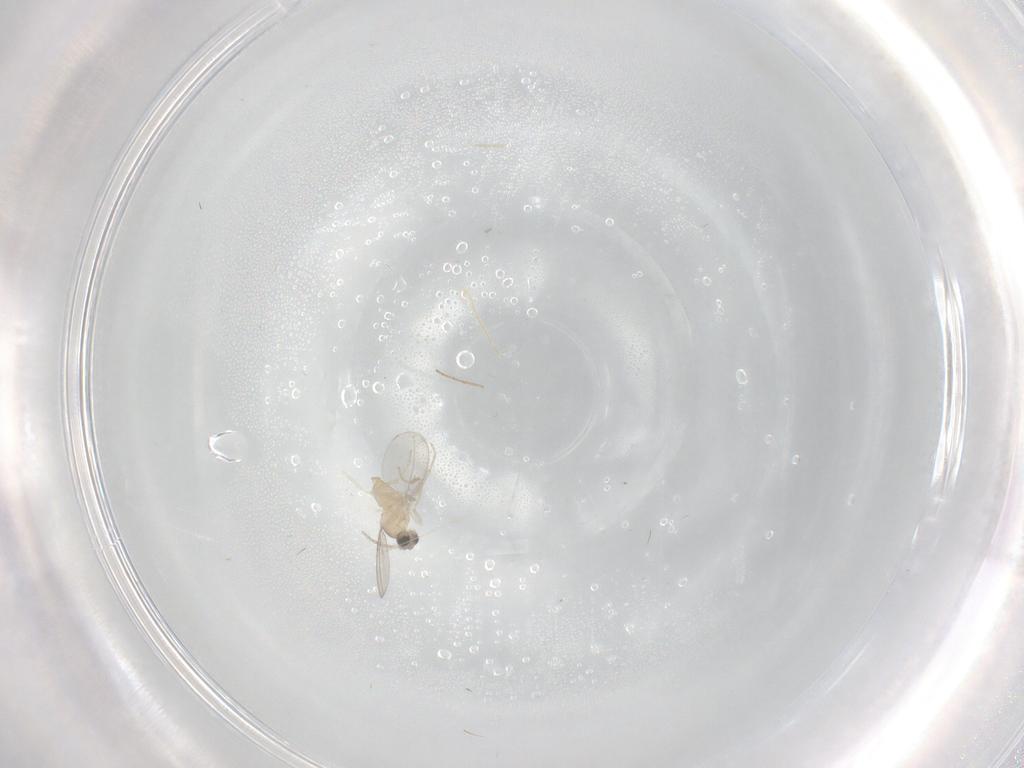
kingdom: Animalia
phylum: Arthropoda
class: Insecta
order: Diptera
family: Cecidomyiidae
